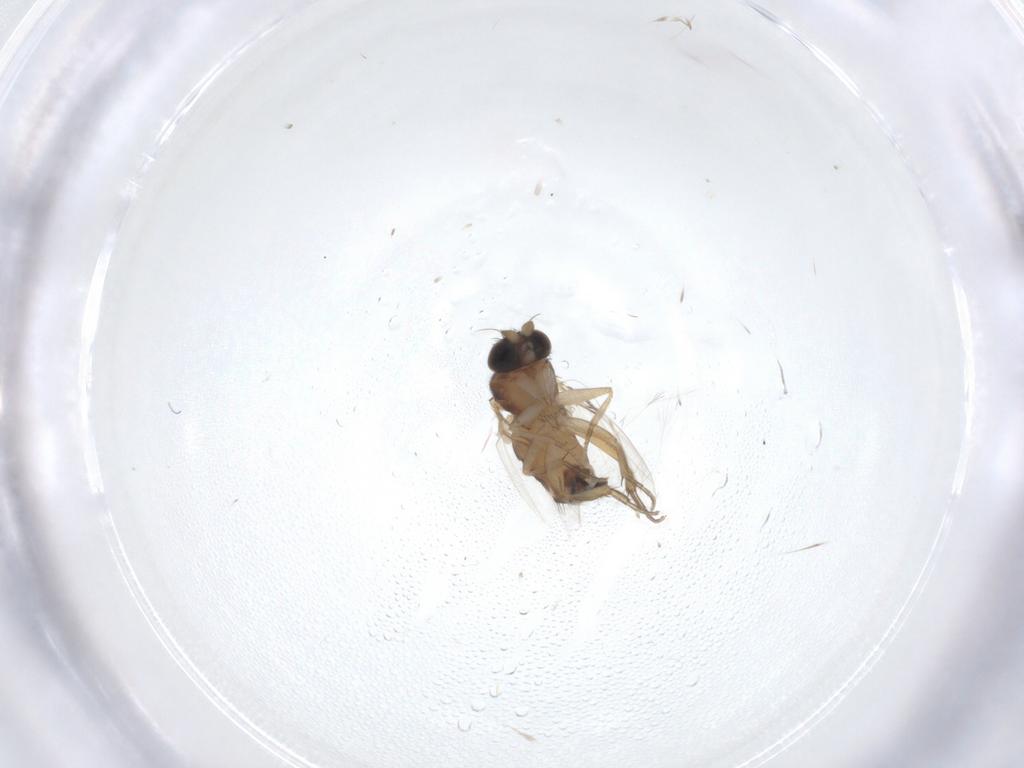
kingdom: Animalia
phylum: Arthropoda
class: Insecta
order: Diptera
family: Phoridae
